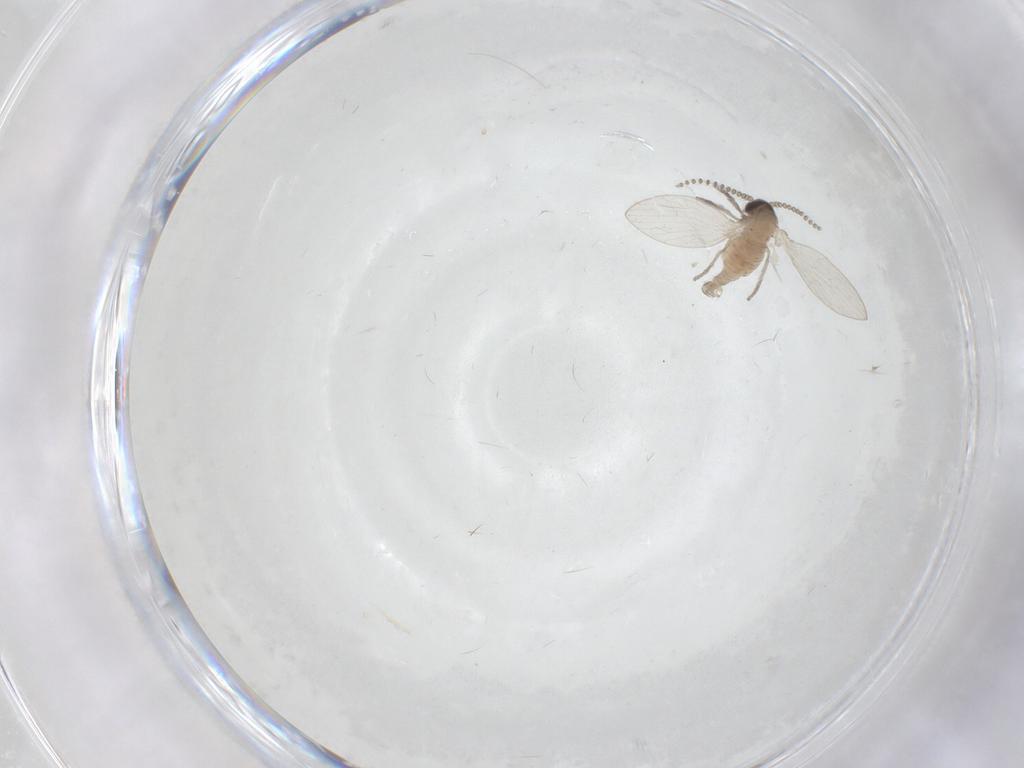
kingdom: Animalia
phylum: Arthropoda
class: Insecta
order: Diptera
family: Psychodidae
